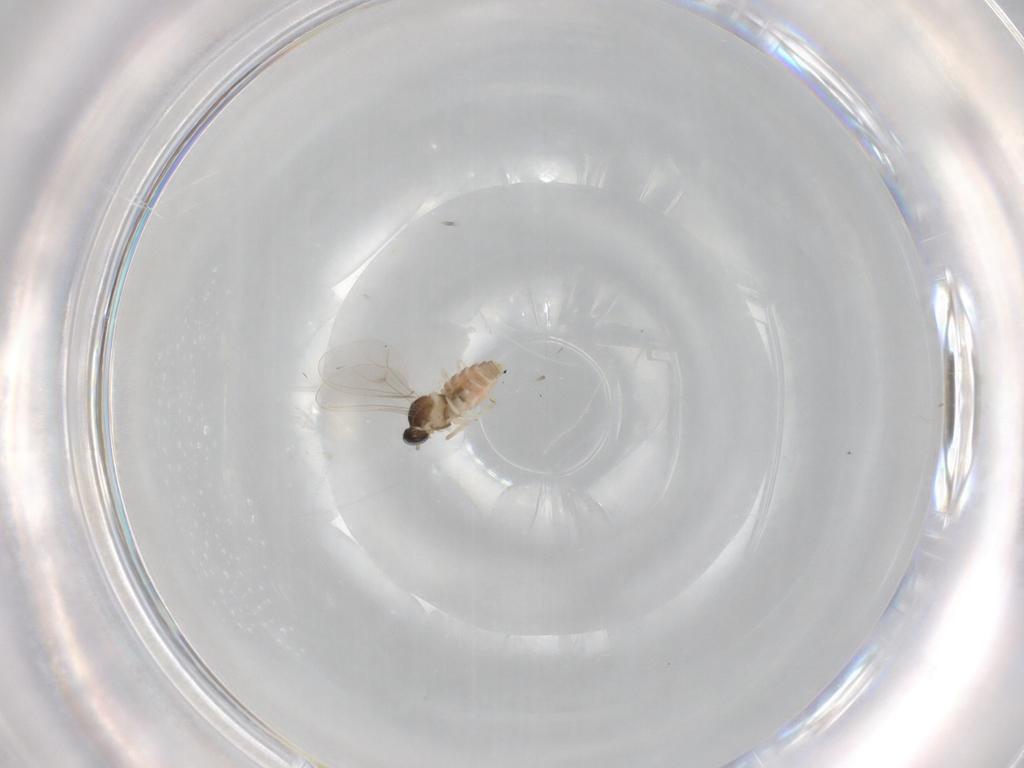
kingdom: Animalia
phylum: Arthropoda
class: Insecta
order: Diptera
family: Cecidomyiidae
